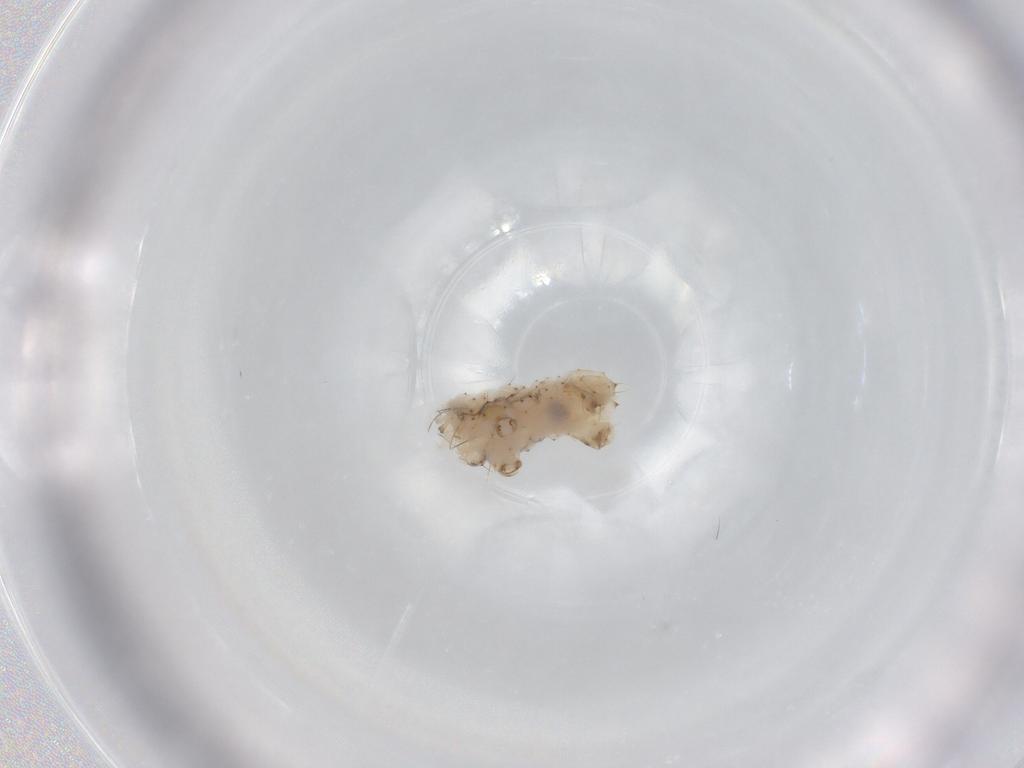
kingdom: Animalia
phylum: Arthropoda
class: Insecta
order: Lepidoptera
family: Geometridae
